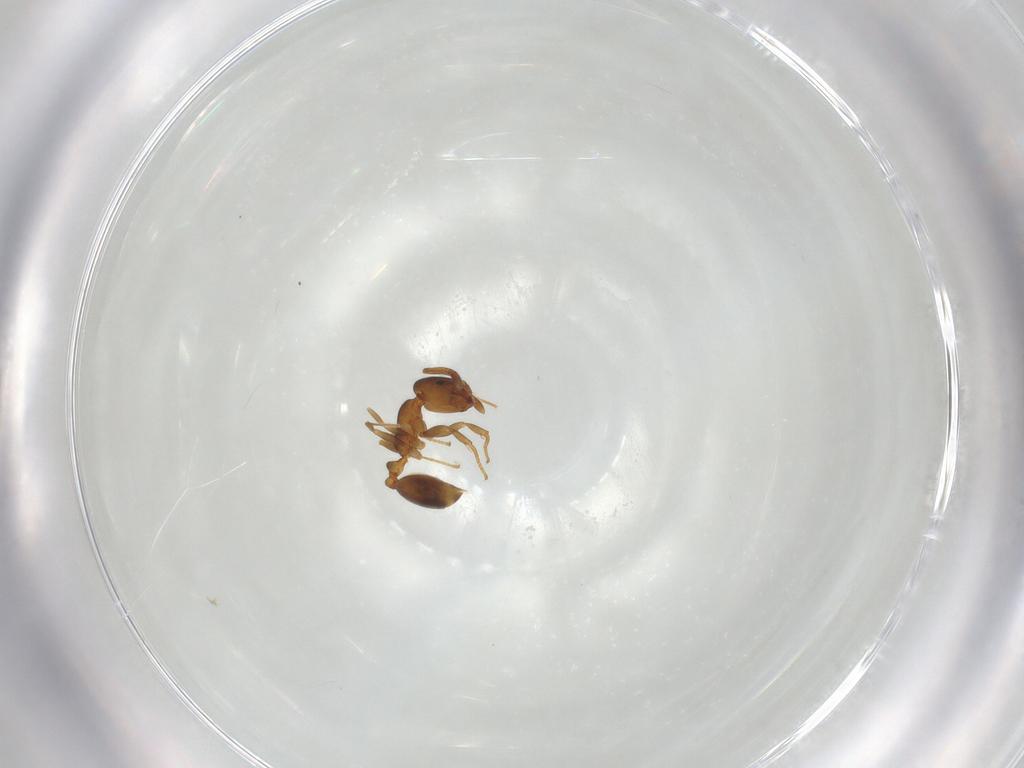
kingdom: Animalia
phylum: Arthropoda
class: Insecta
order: Hymenoptera
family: Formicidae
